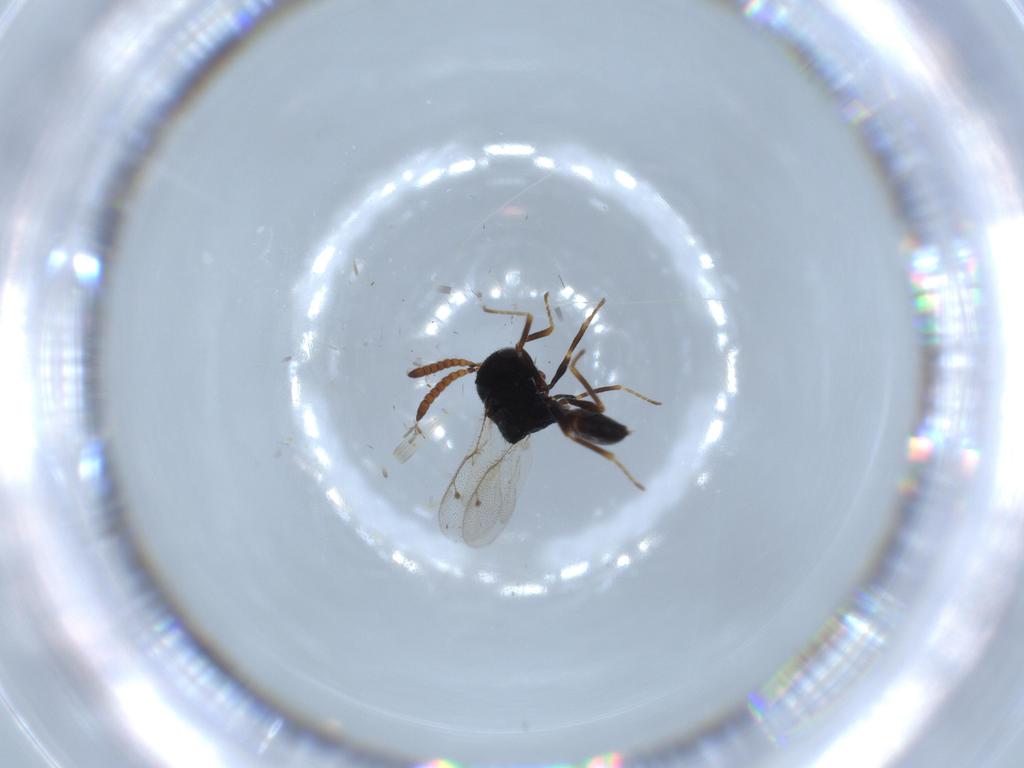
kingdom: Animalia
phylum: Arthropoda
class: Insecta
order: Hymenoptera
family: Pteromalidae
